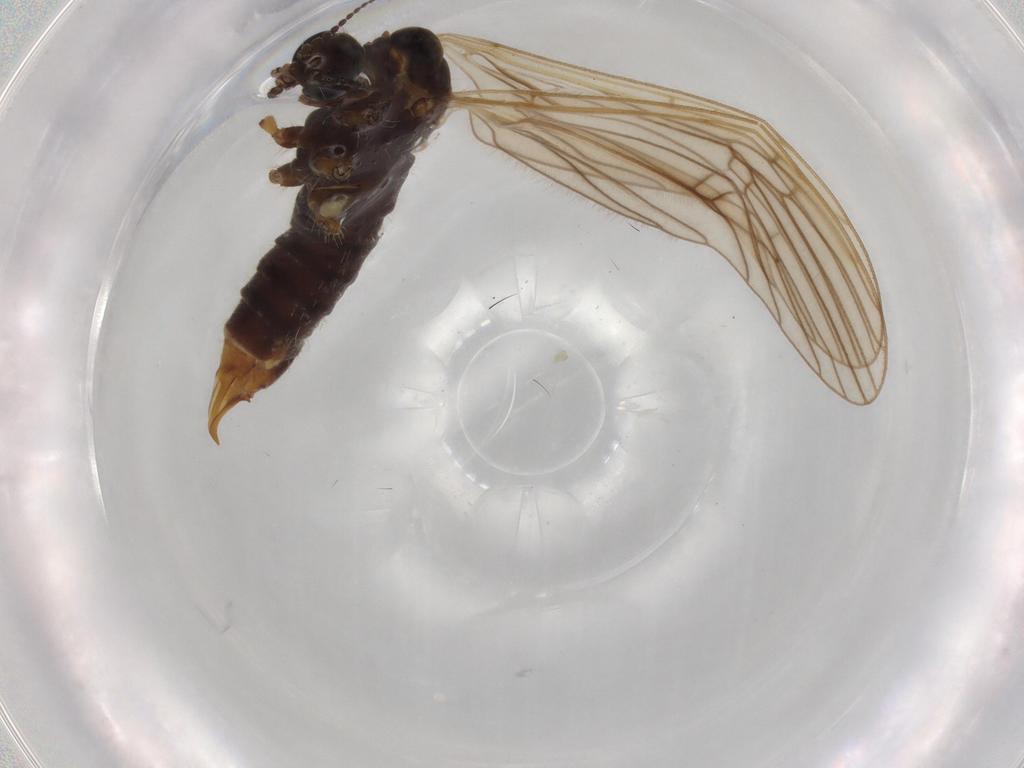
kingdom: Animalia
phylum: Arthropoda
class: Insecta
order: Diptera
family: Limoniidae
